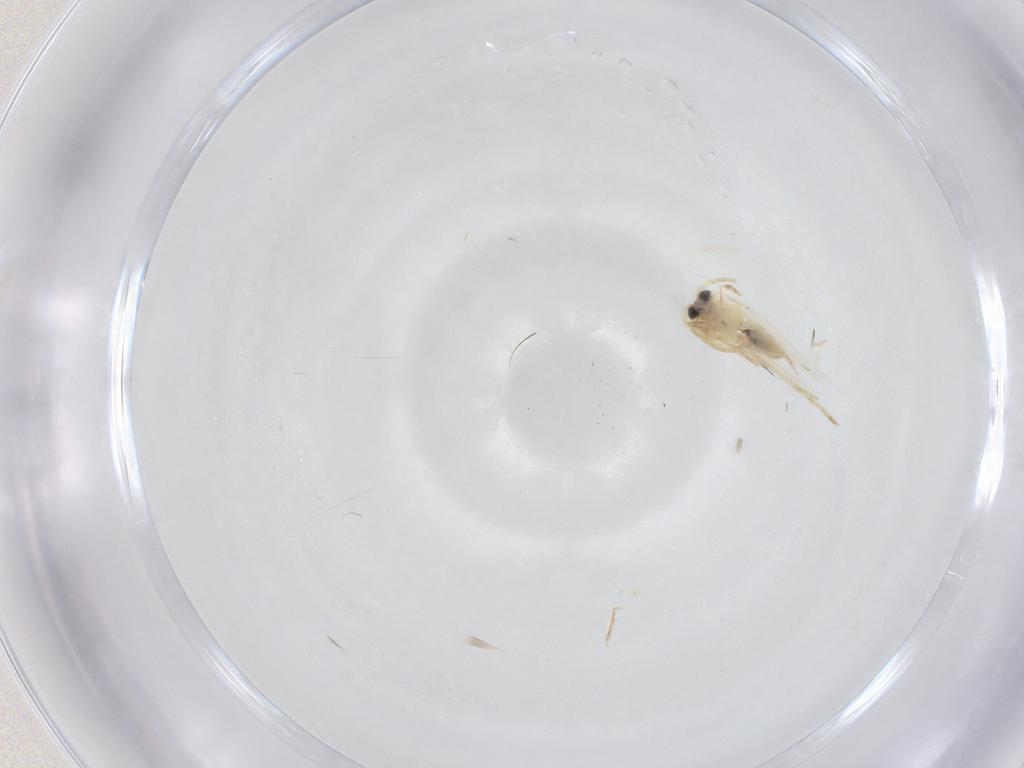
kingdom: Animalia
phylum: Arthropoda
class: Insecta
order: Lepidoptera
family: Nepticulidae
